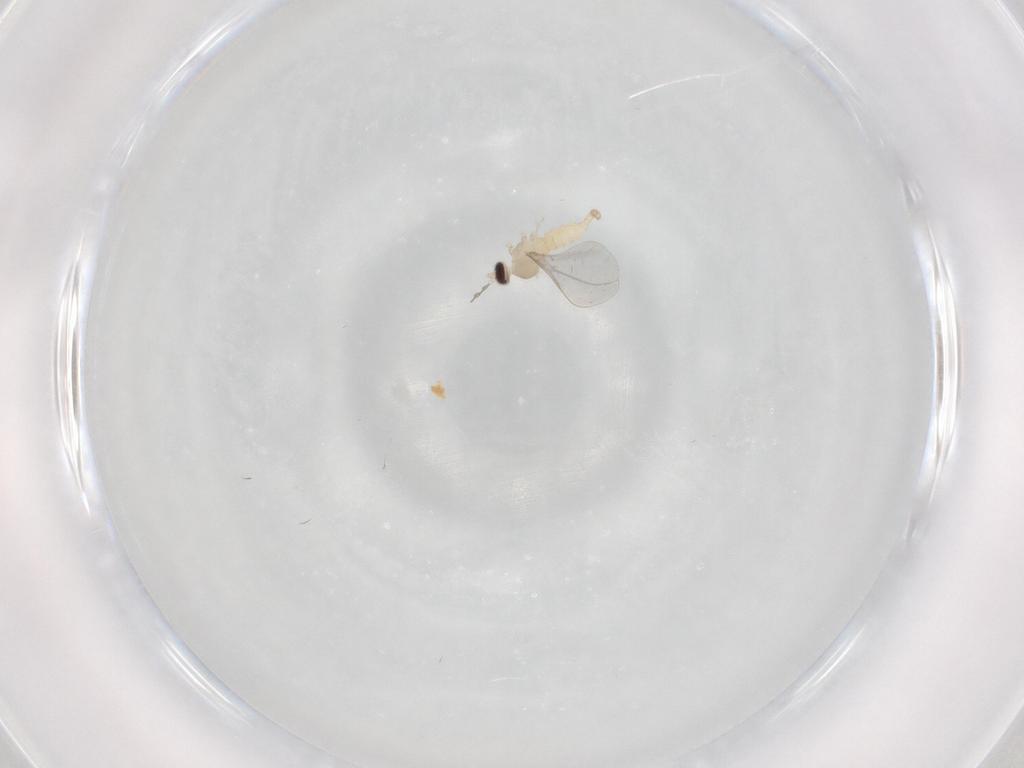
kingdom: Animalia
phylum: Arthropoda
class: Insecta
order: Diptera
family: Cecidomyiidae
